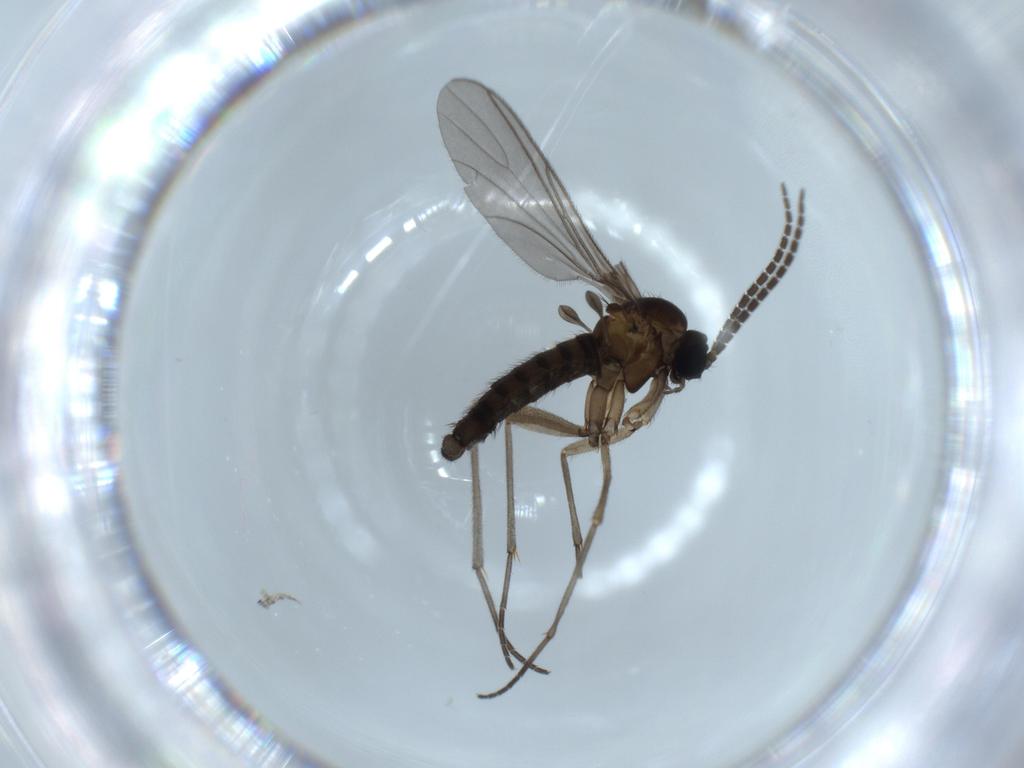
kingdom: Animalia
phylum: Arthropoda
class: Insecta
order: Diptera
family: Sciaridae
